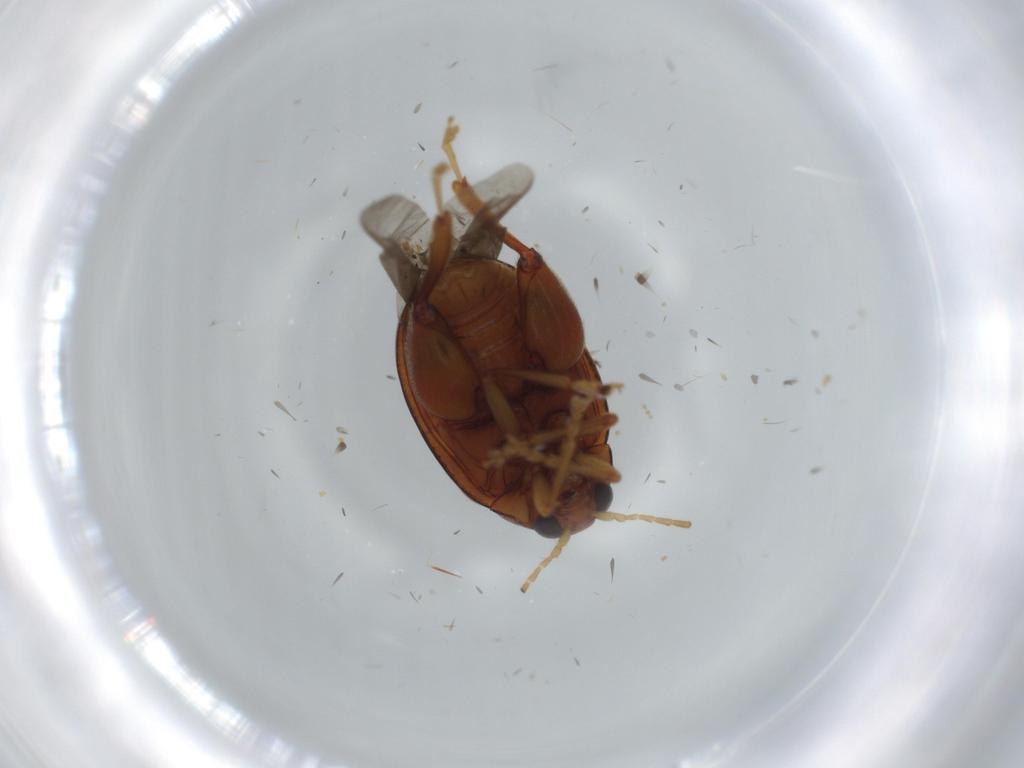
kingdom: Animalia
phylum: Arthropoda
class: Insecta
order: Coleoptera
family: Chrysomelidae
